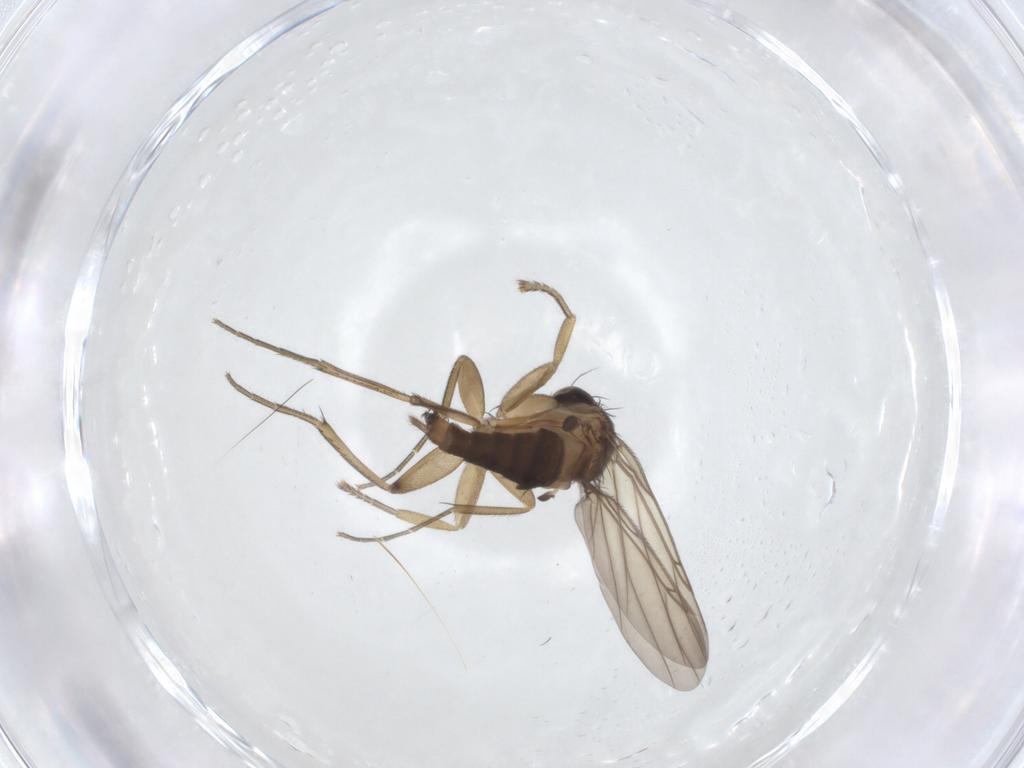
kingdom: Animalia
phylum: Arthropoda
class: Insecta
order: Diptera
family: Phoridae
